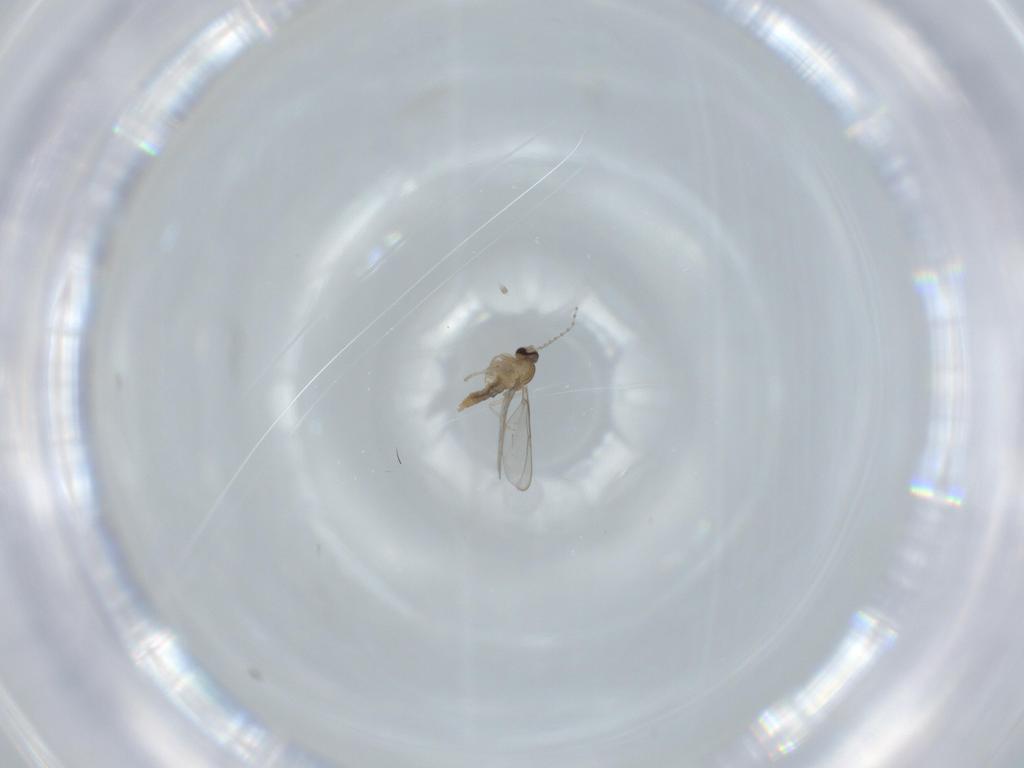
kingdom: Animalia
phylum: Arthropoda
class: Insecta
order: Diptera
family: Cecidomyiidae
